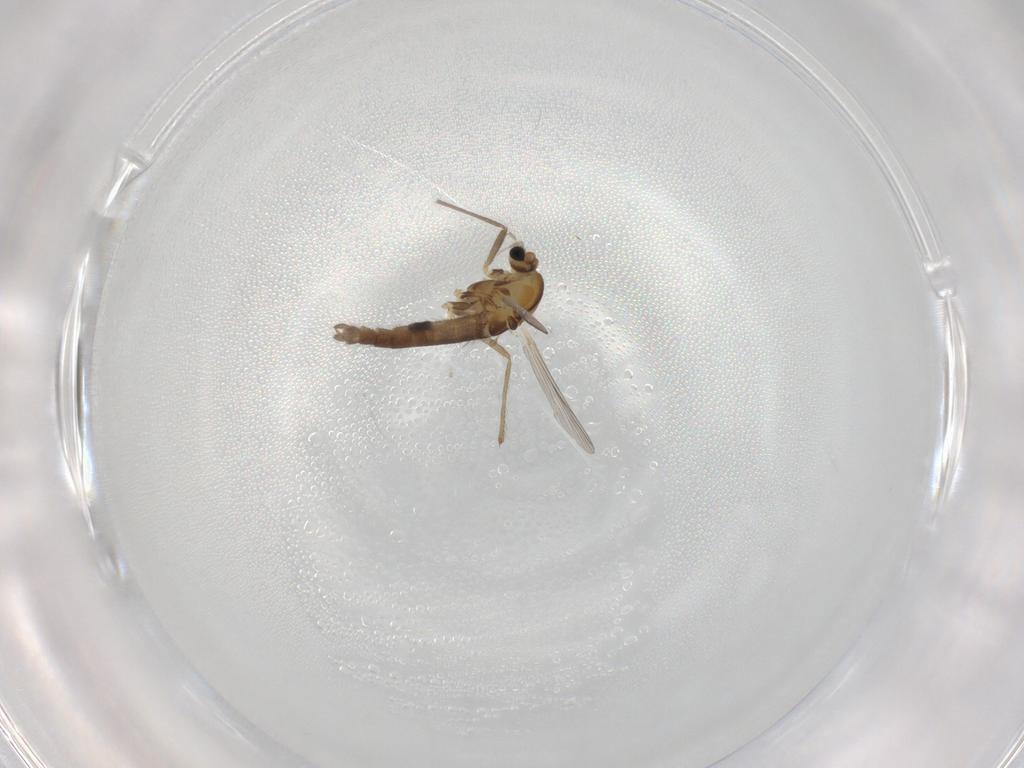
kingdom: Animalia
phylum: Arthropoda
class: Insecta
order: Diptera
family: Chironomidae
